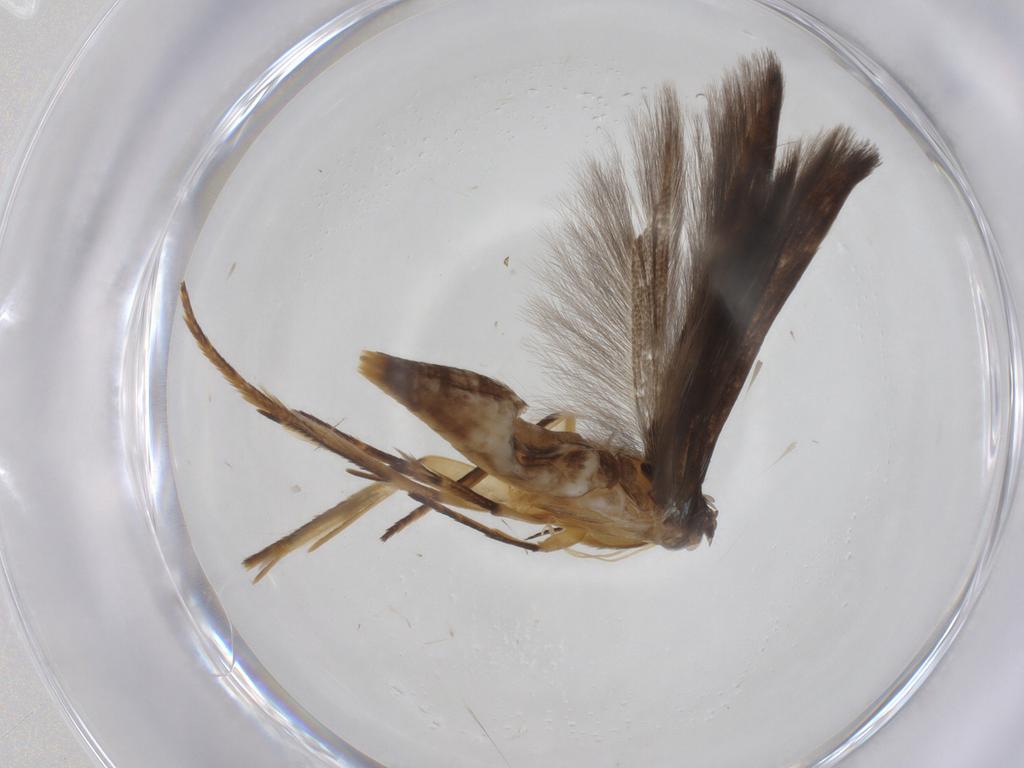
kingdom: Animalia
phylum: Arthropoda
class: Insecta
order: Lepidoptera
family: Gelechiidae
